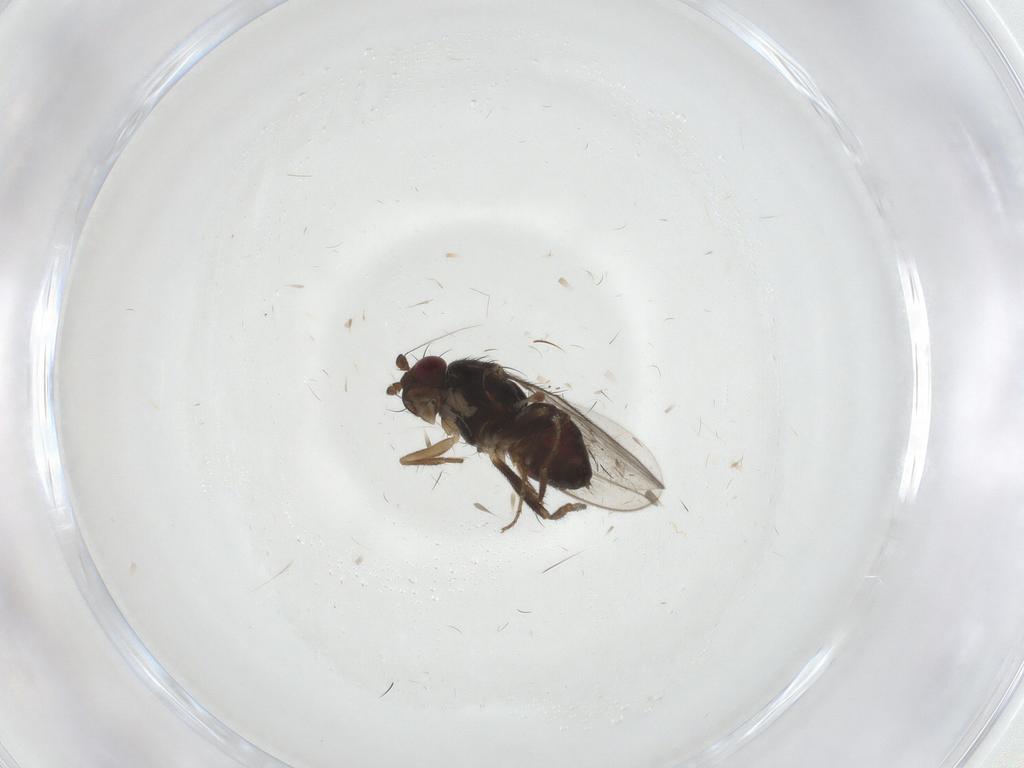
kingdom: Animalia
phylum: Arthropoda
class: Insecta
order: Diptera
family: Sphaeroceridae
